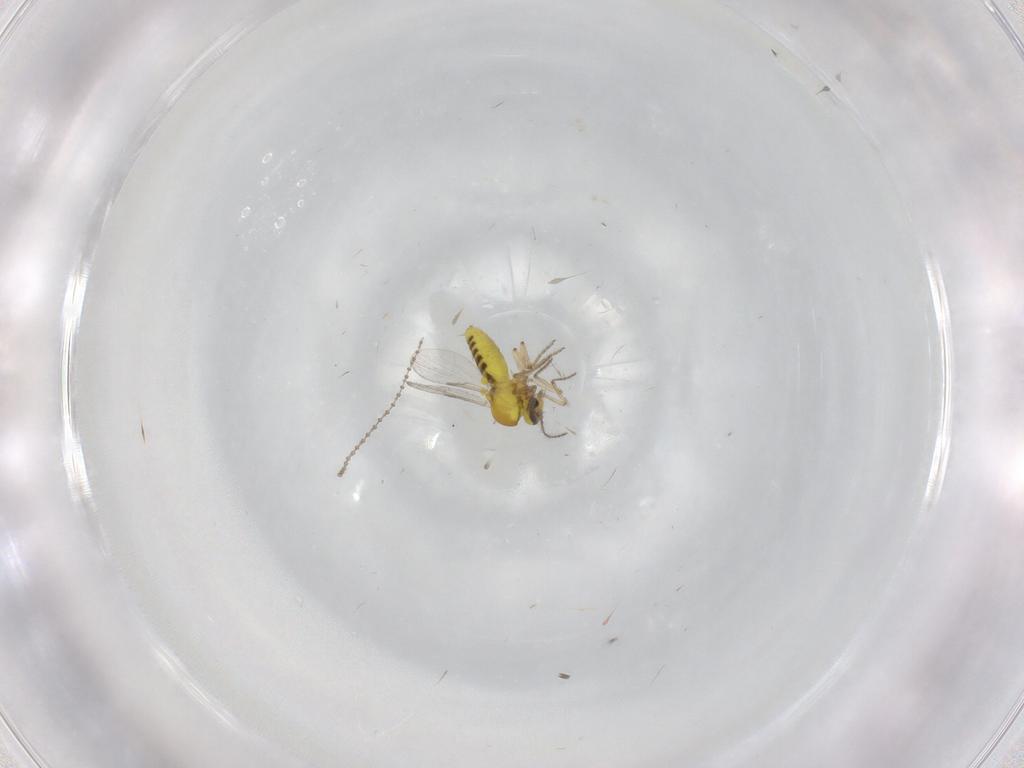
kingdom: Animalia
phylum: Arthropoda
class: Insecta
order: Diptera
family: Ceratopogonidae
